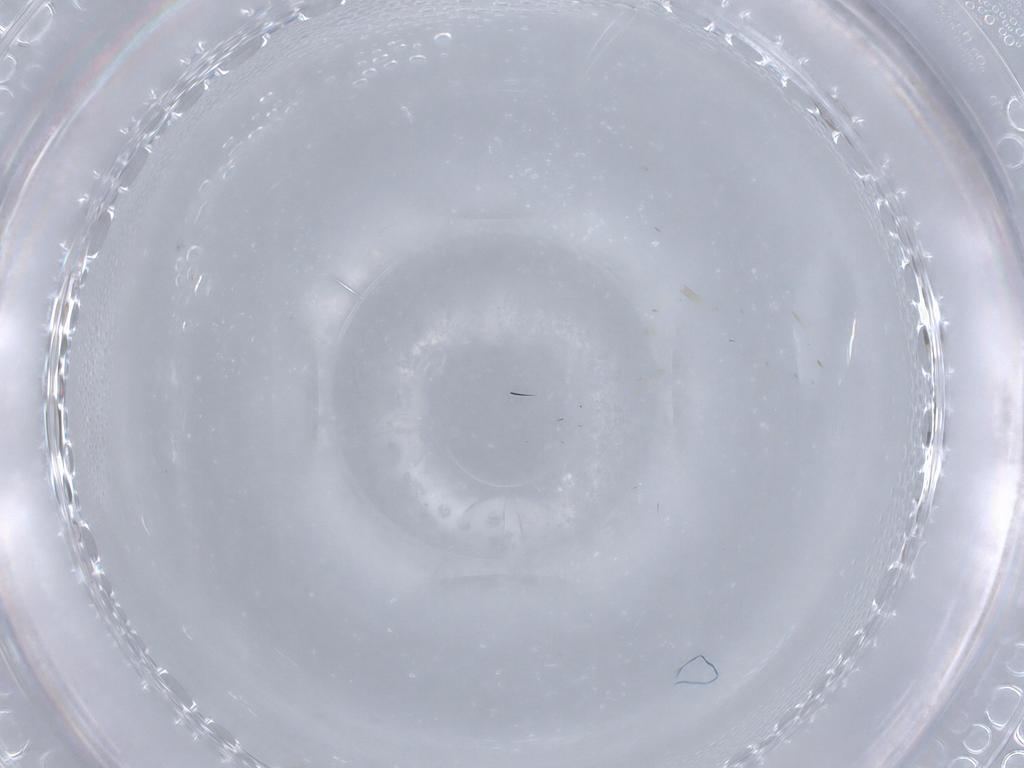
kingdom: Animalia
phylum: Arthropoda
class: Insecta
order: Hymenoptera
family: Trichogrammatidae
